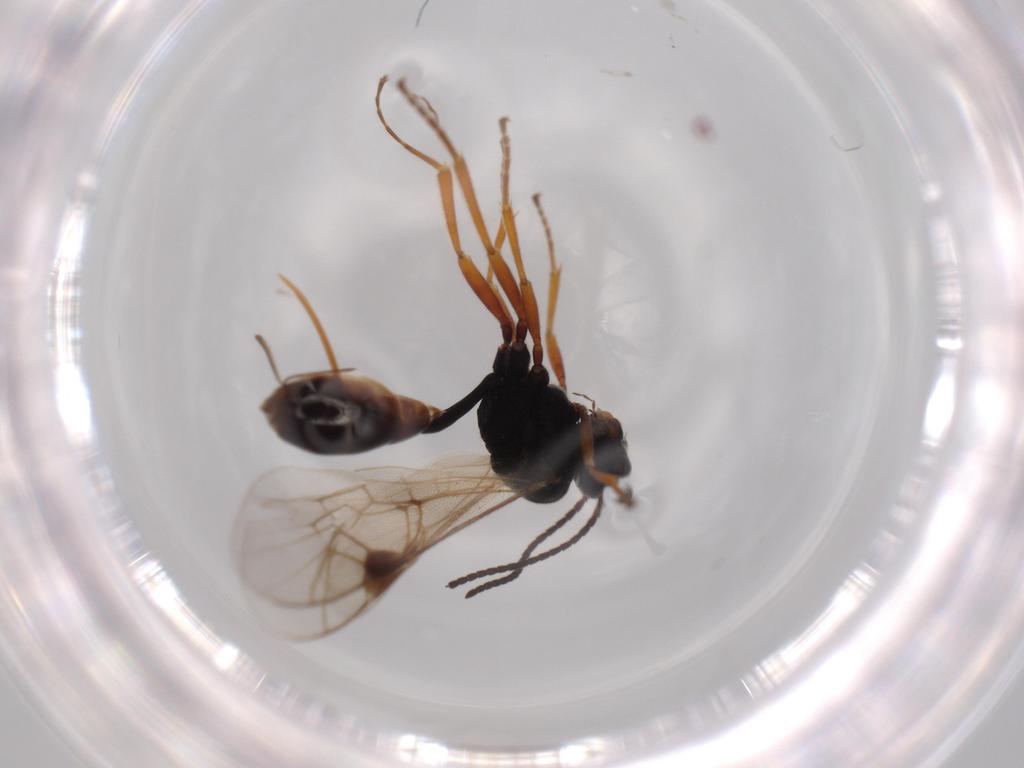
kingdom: Animalia
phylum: Arthropoda
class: Insecta
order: Hymenoptera
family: Ichneumonidae
